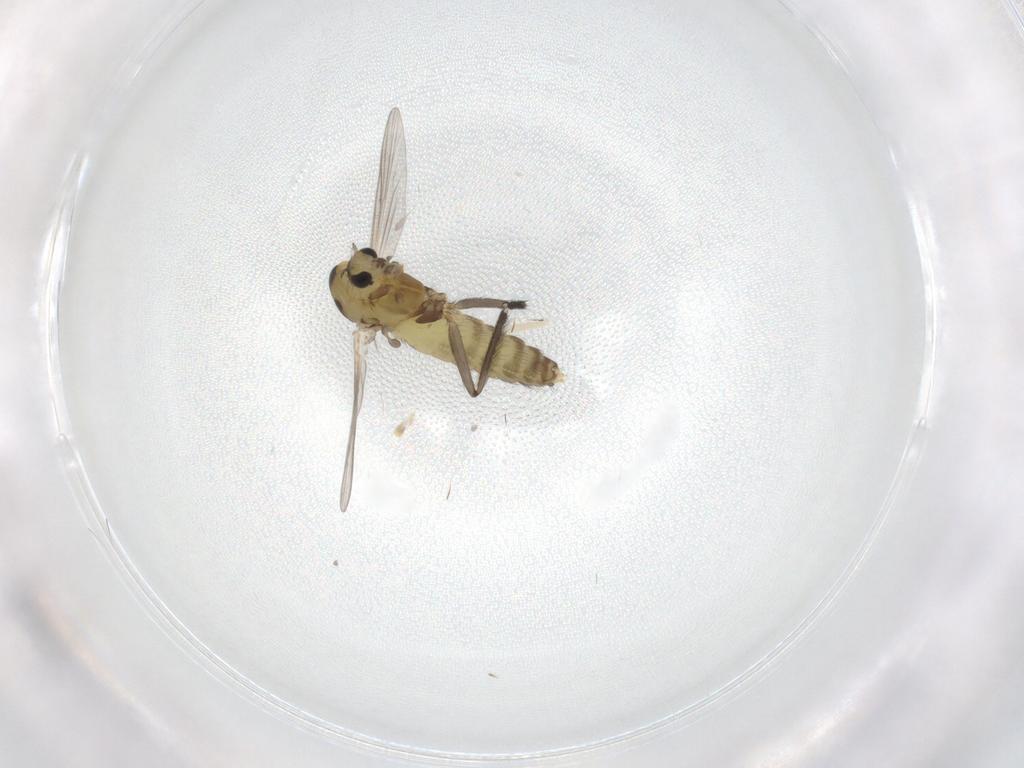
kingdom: Animalia
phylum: Arthropoda
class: Insecta
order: Diptera
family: Chironomidae
